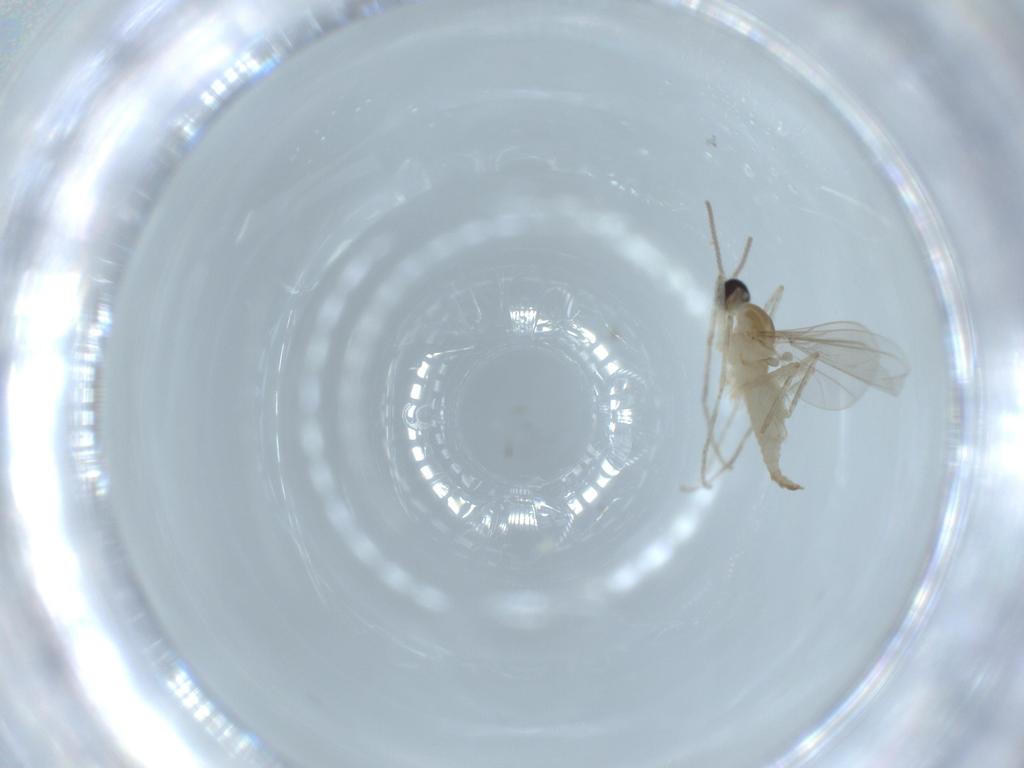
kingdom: Animalia
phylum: Arthropoda
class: Insecta
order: Diptera
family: Cecidomyiidae
